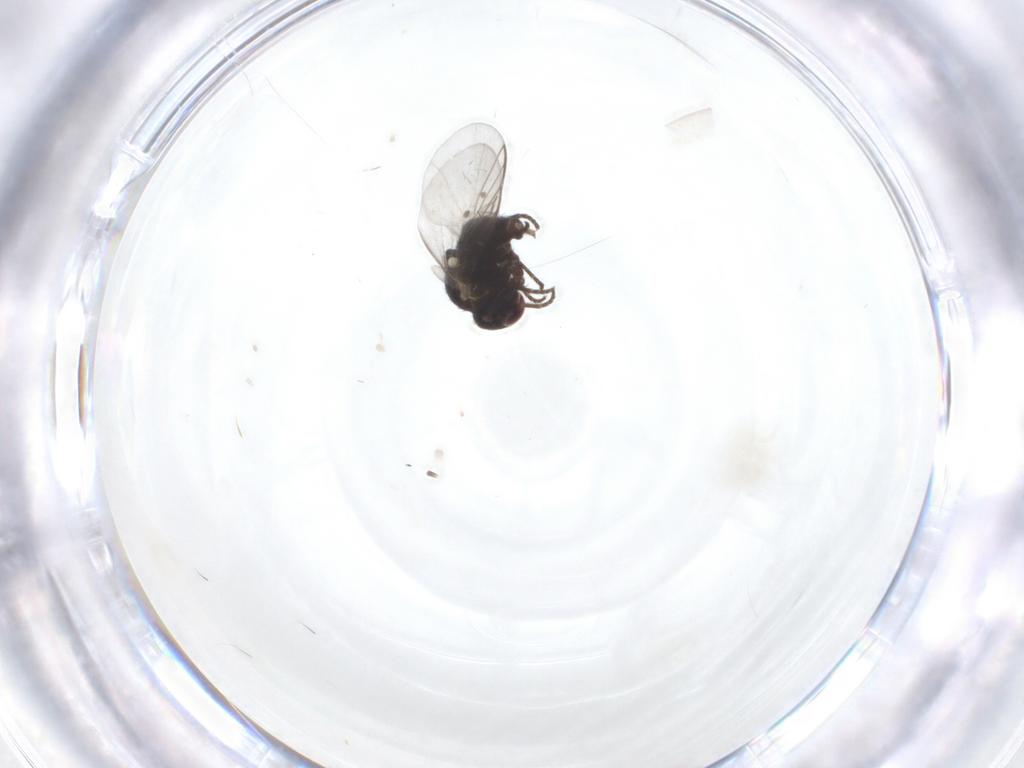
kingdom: Animalia
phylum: Arthropoda
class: Insecta
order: Diptera
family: Agromyzidae
